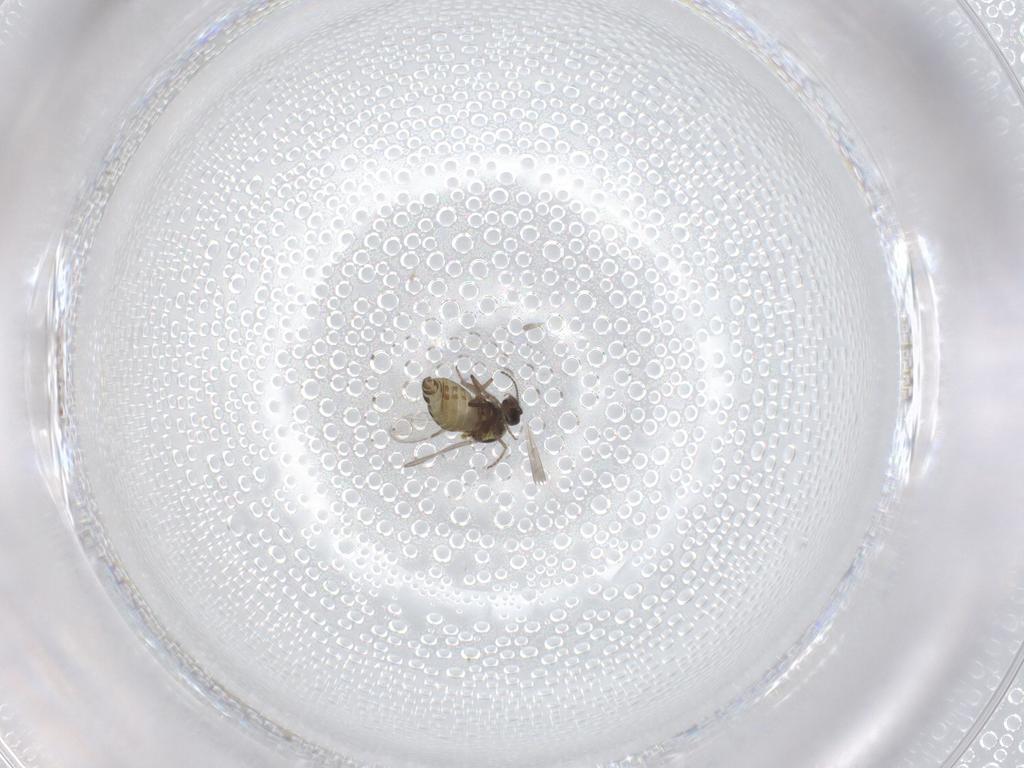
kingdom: Animalia
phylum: Arthropoda
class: Insecta
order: Diptera
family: Ceratopogonidae
